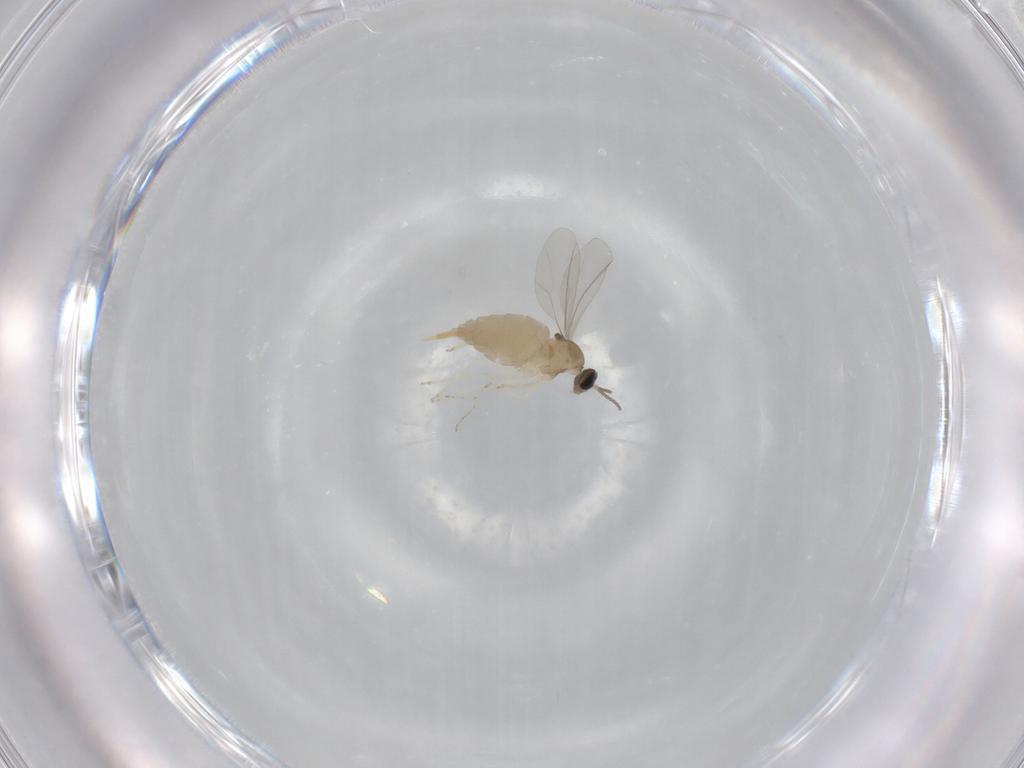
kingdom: Animalia
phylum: Arthropoda
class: Insecta
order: Diptera
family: Cecidomyiidae
